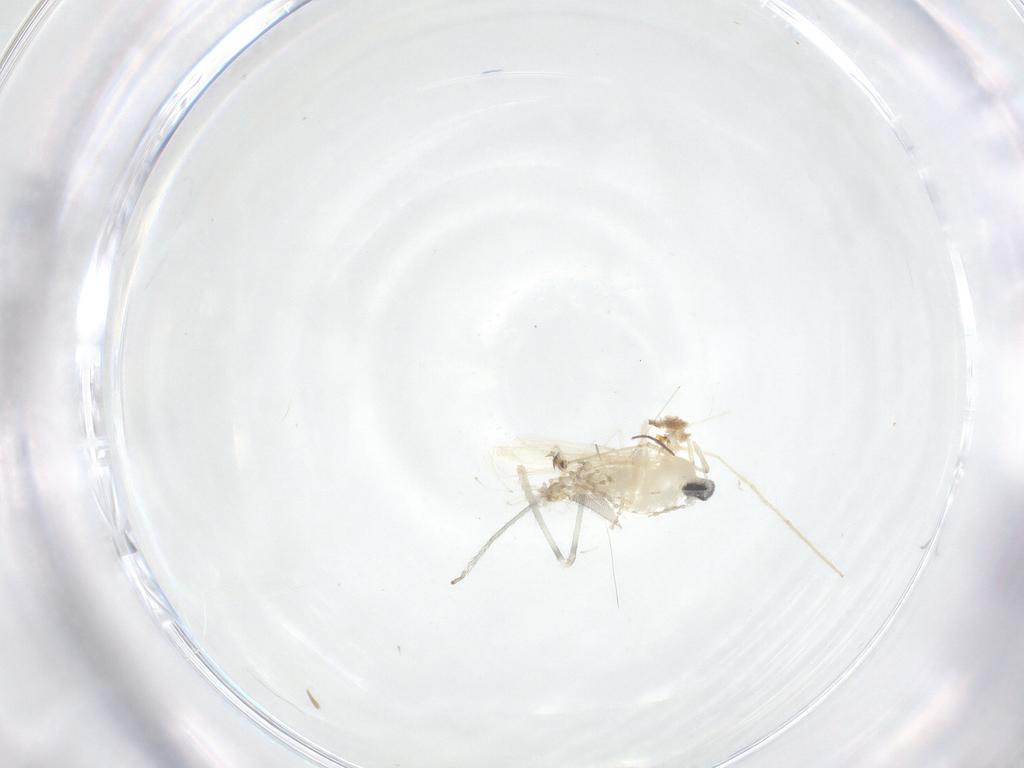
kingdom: Animalia
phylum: Arthropoda
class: Insecta
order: Diptera
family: Cecidomyiidae
